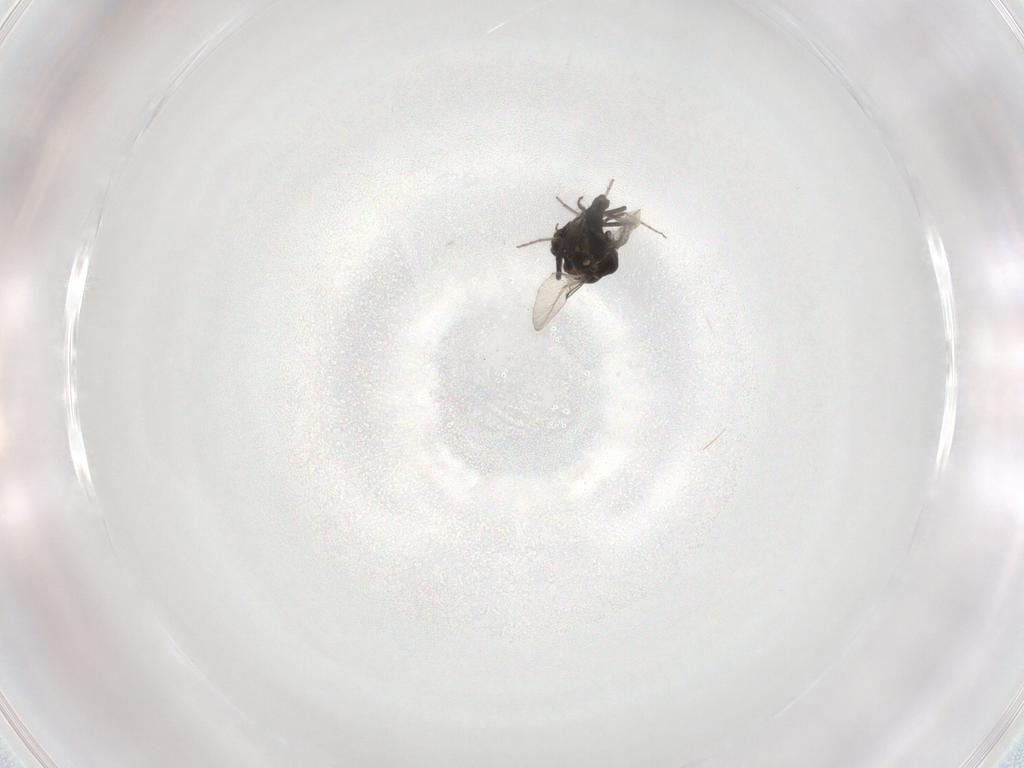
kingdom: Animalia
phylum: Arthropoda
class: Insecta
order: Diptera
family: Ceratopogonidae
